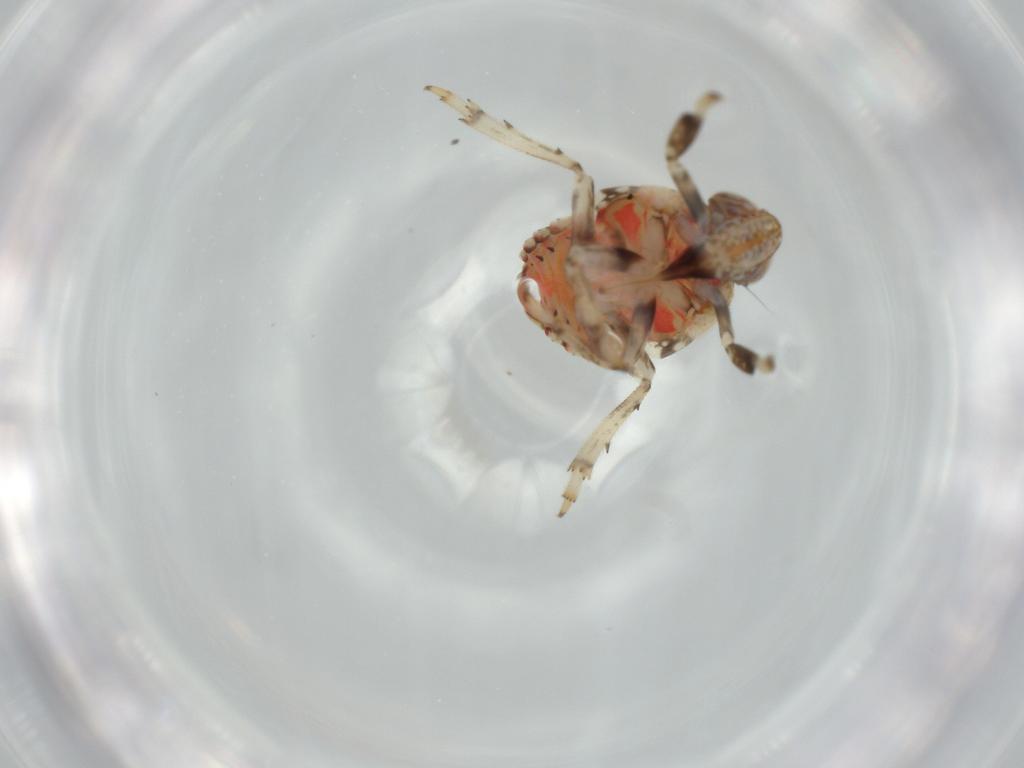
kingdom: Animalia
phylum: Arthropoda
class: Insecta
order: Hemiptera
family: Issidae
